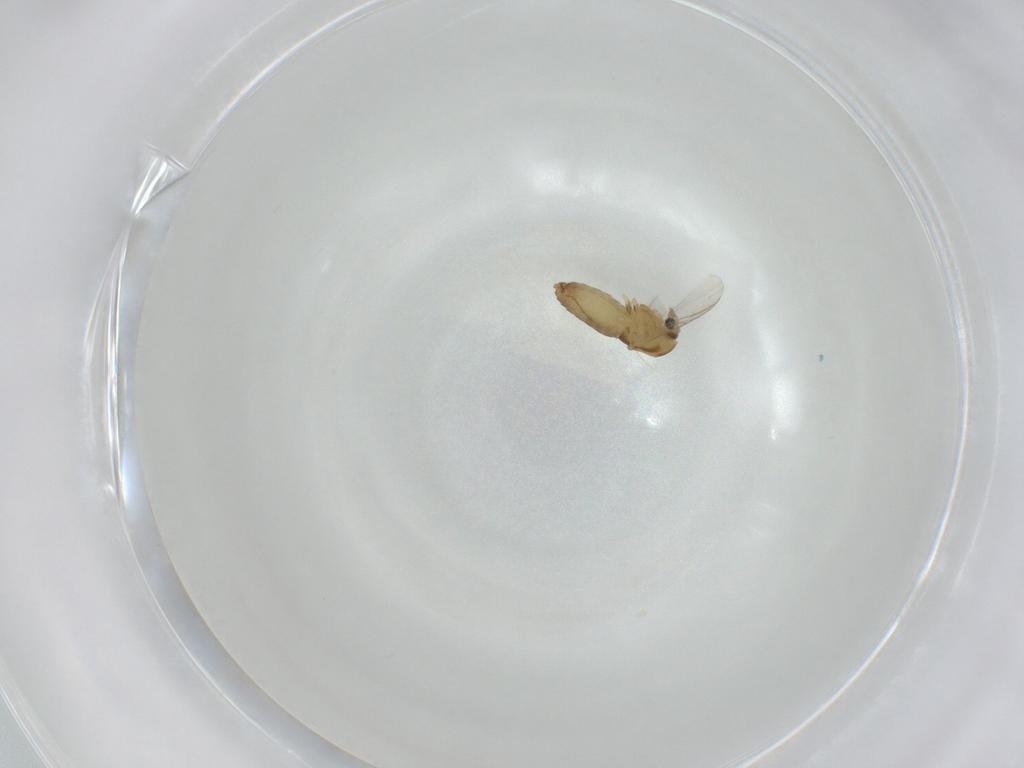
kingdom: Animalia
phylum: Arthropoda
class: Insecta
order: Diptera
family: Chironomidae
